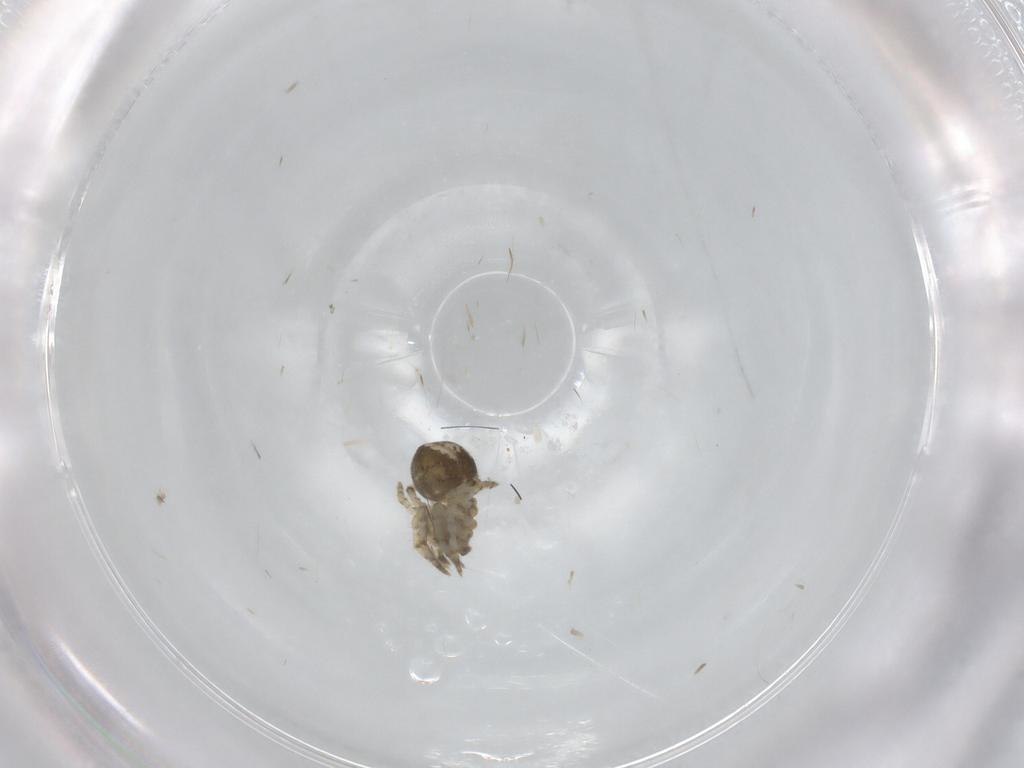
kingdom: Animalia
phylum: Arthropoda
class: Arachnida
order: Araneae
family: Theridiidae
